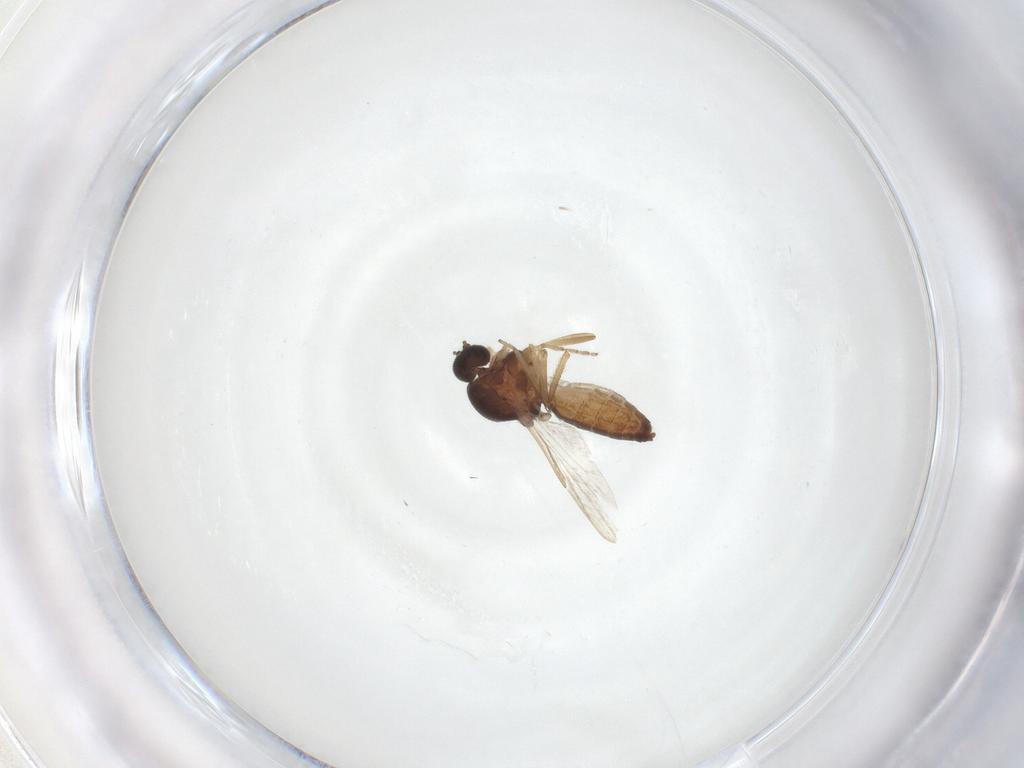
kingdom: Animalia
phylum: Arthropoda
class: Insecta
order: Diptera
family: Ceratopogonidae
